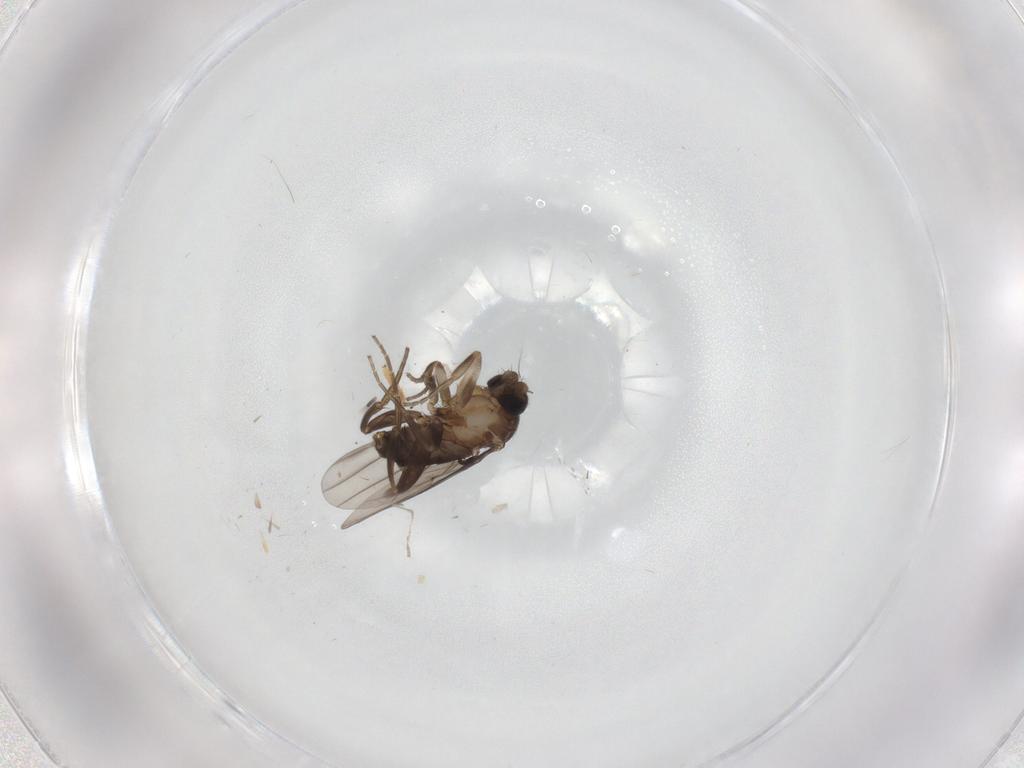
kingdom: Animalia
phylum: Arthropoda
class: Insecta
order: Diptera
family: Phoridae
